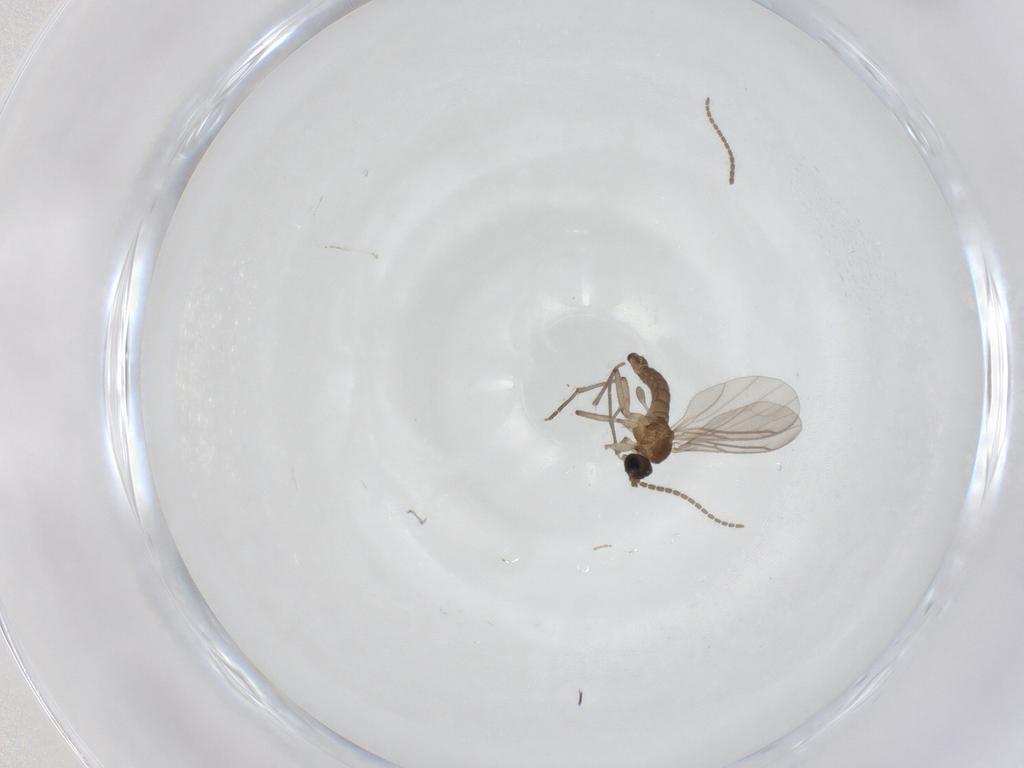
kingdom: Animalia
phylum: Arthropoda
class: Insecta
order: Diptera
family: Sciaridae
